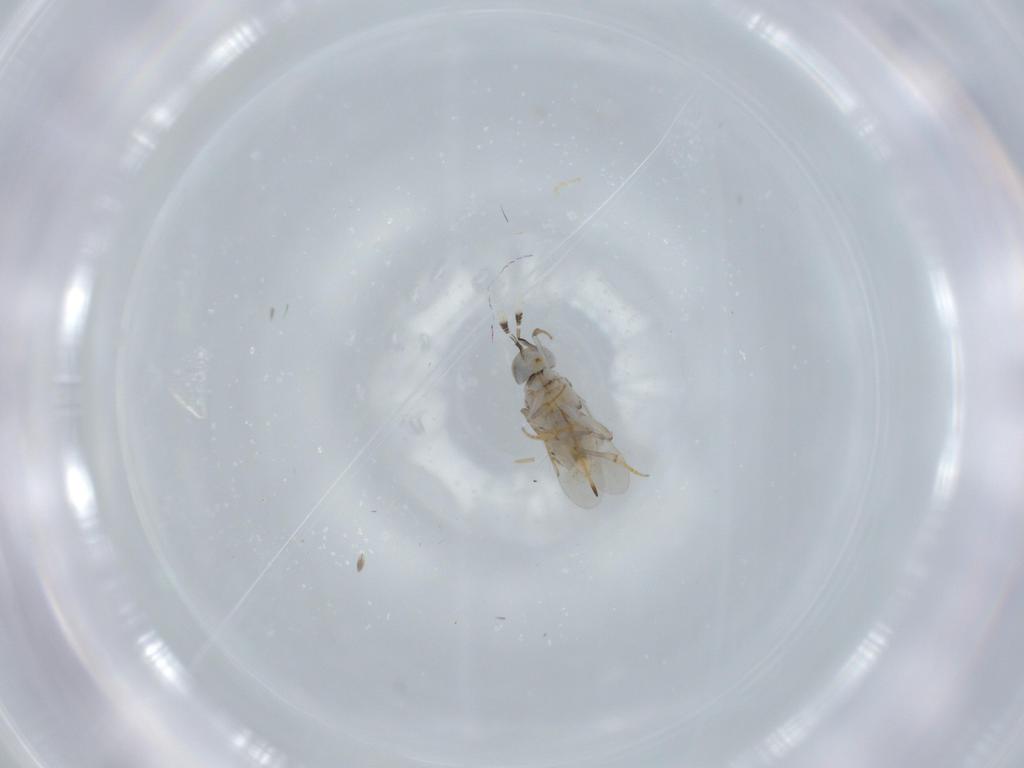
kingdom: Animalia
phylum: Arthropoda
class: Insecta
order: Hymenoptera
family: Encyrtidae
